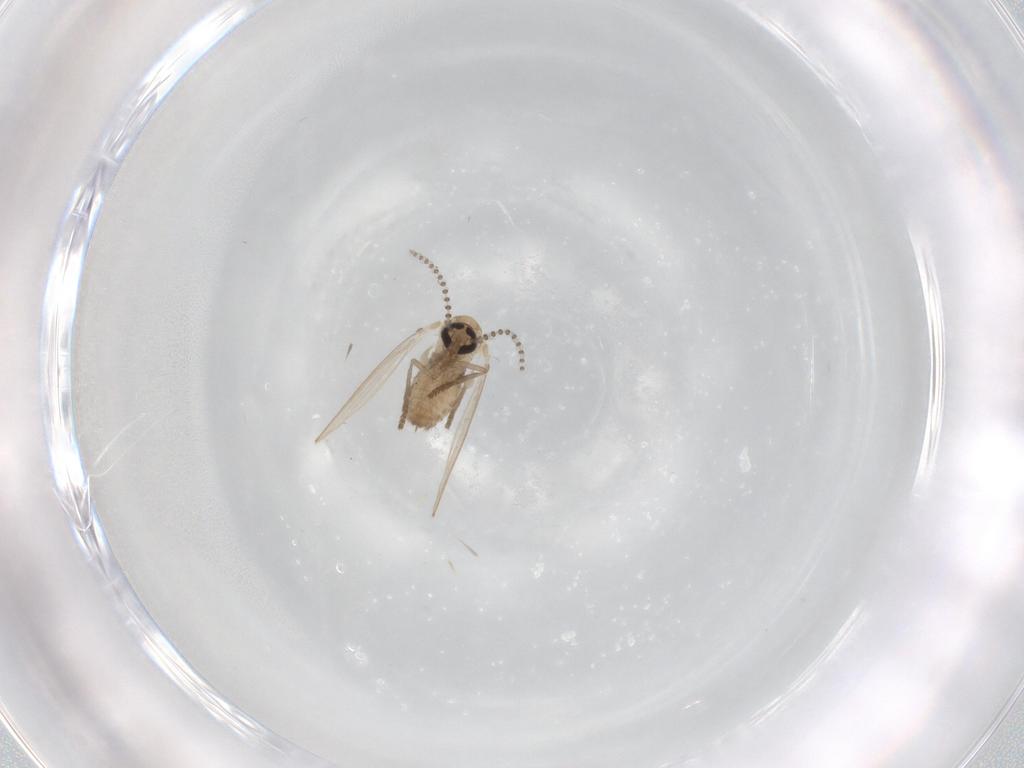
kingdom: Animalia
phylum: Arthropoda
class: Insecta
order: Diptera
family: Psychodidae
